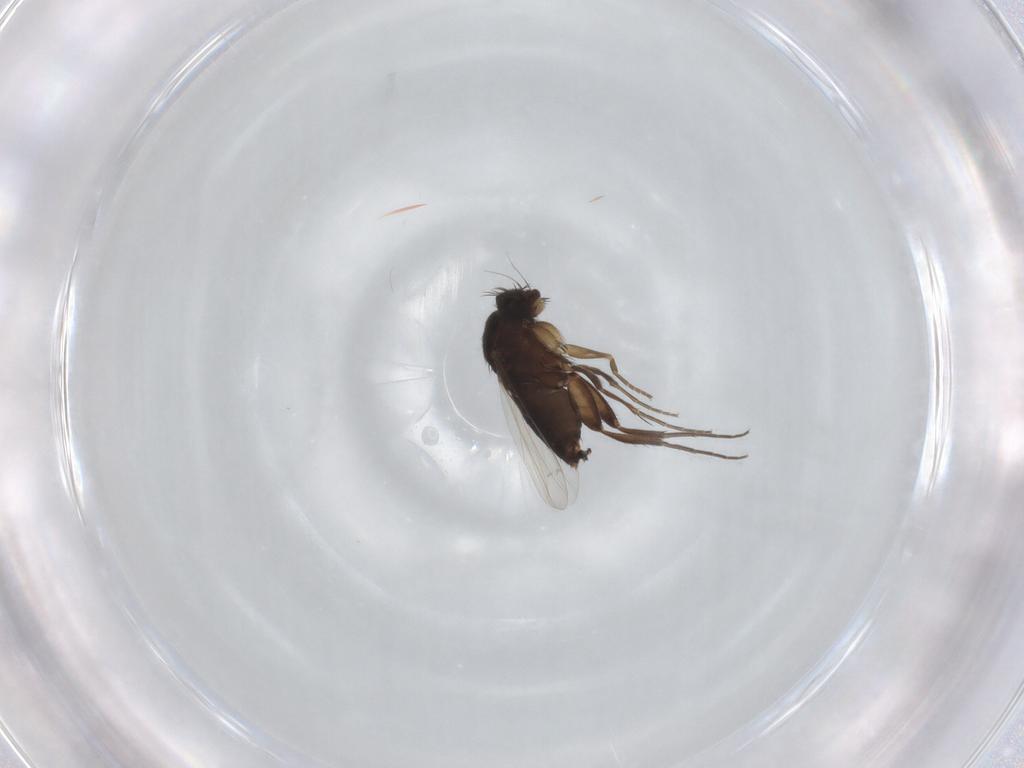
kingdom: Animalia
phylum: Arthropoda
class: Insecta
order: Diptera
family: Phoridae
